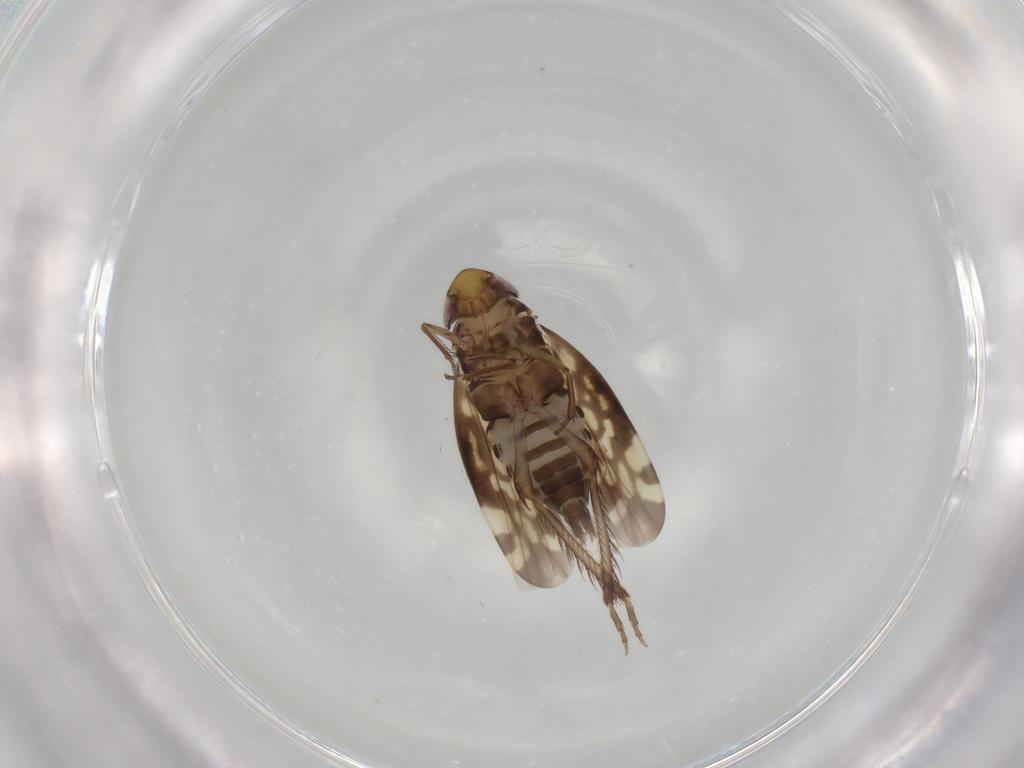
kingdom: Animalia
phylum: Arthropoda
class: Insecta
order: Hemiptera
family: Cicadellidae
